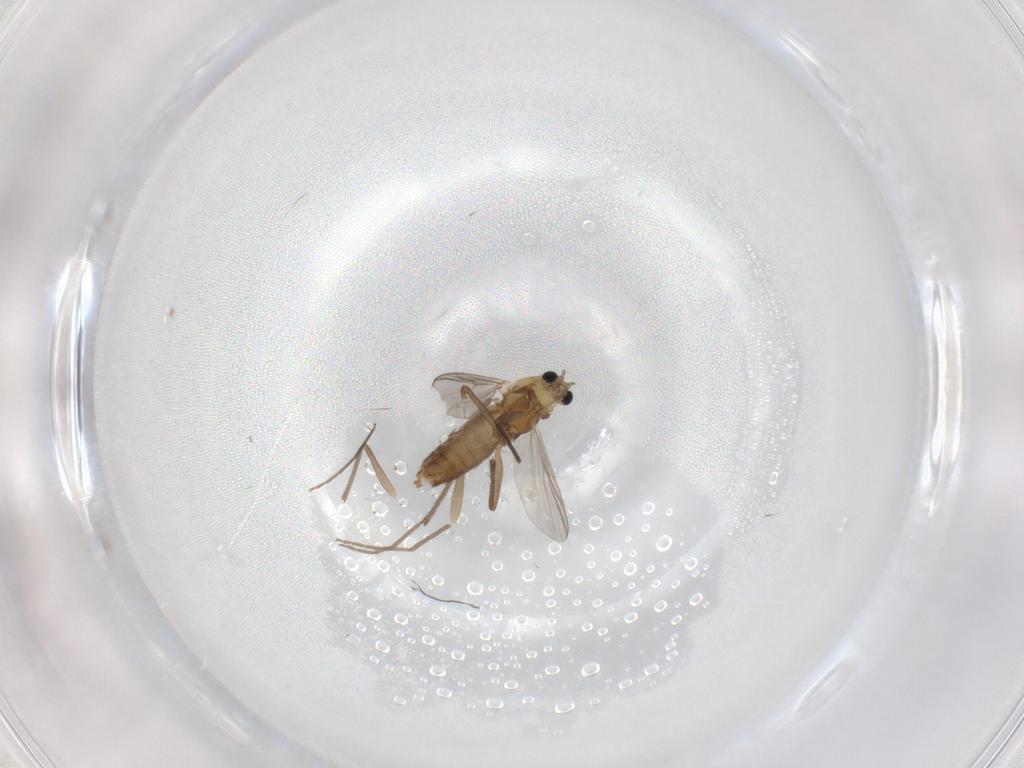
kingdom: Animalia
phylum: Arthropoda
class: Insecta
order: Diptera
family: Chironomidae
